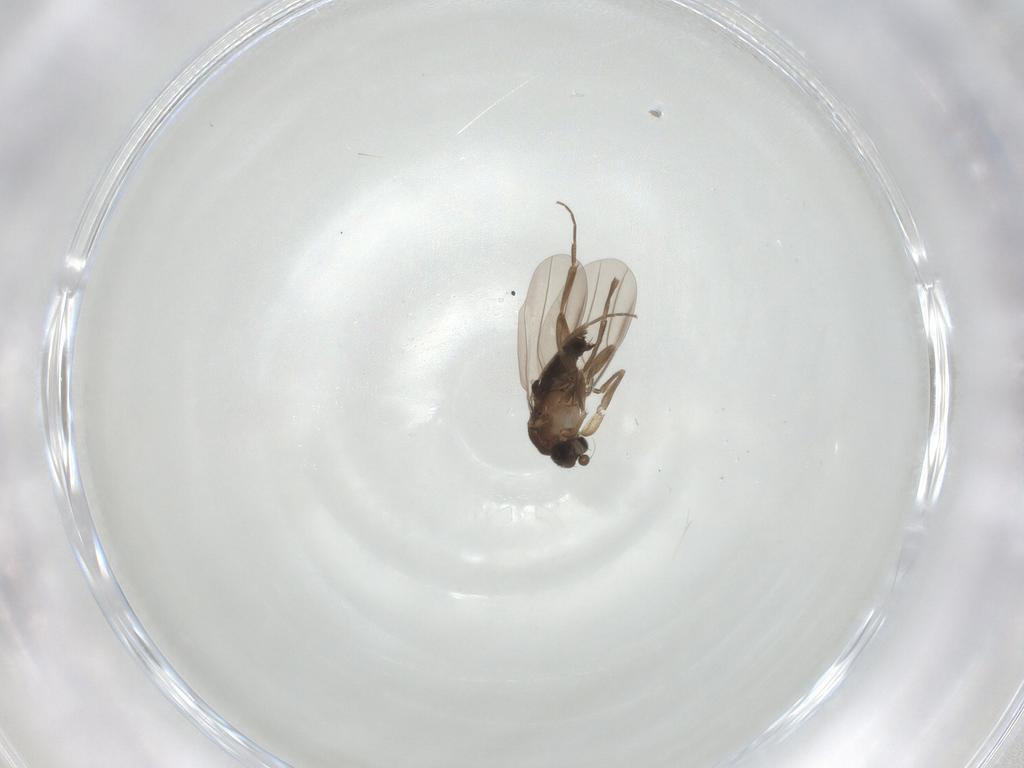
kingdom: Animalia
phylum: Arthropoda
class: Insecta
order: Diptera
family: Phoridae
